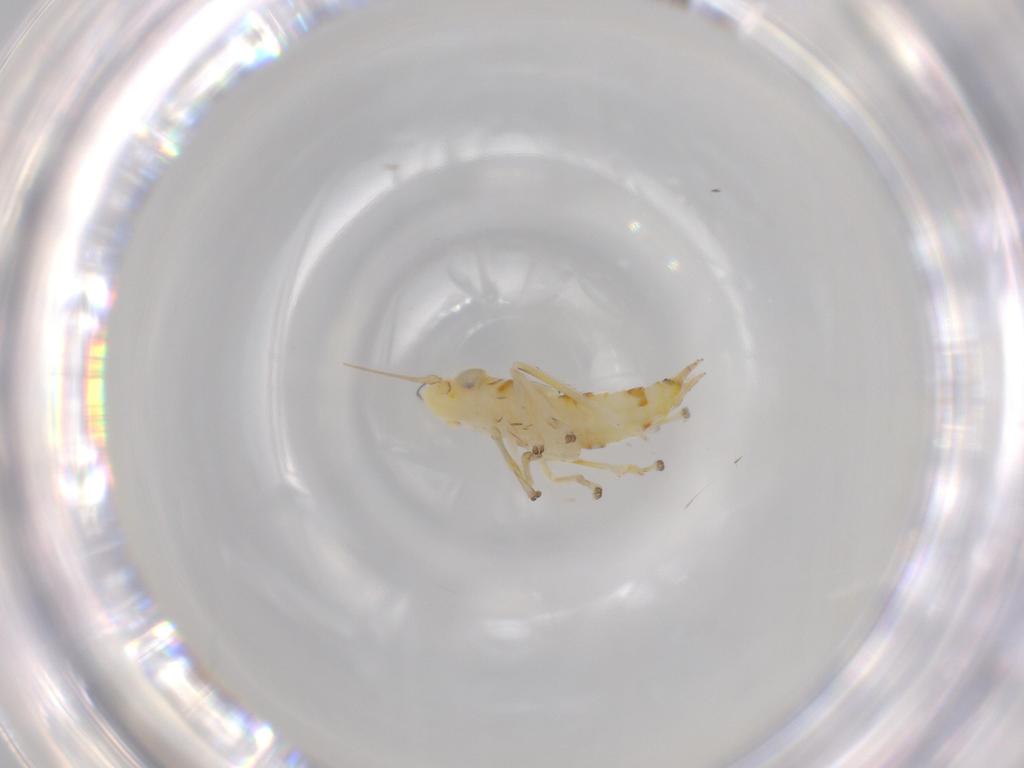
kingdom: Animalia
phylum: Arthropoda
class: Insecta
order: Hemiptera
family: Cicadellidae
